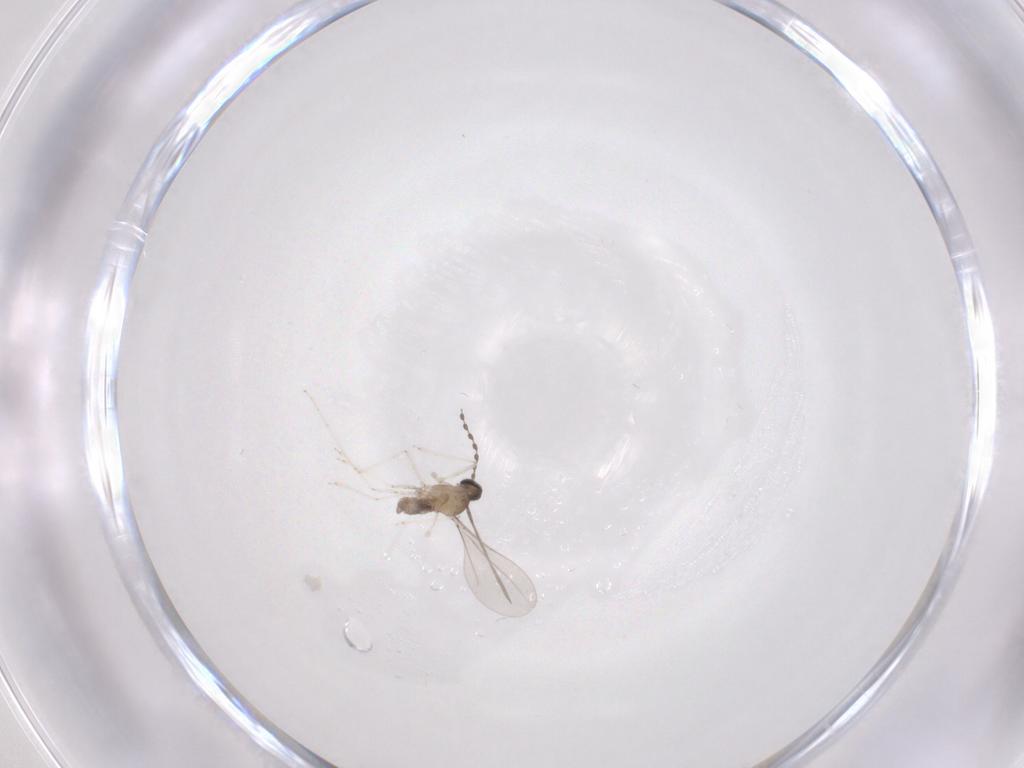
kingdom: Animalia
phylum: Arthropoda
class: Insecta
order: Diptera
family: Cecidomyiidae
